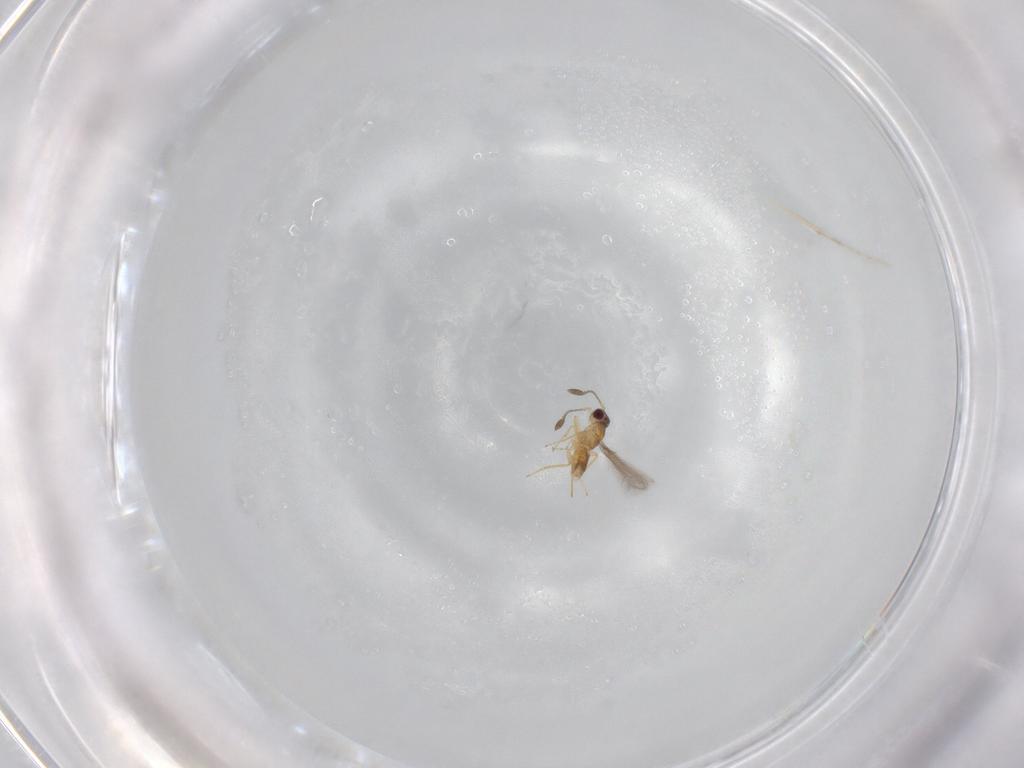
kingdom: Animalia
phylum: Arthropoda
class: Insecta
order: Hymenoptera
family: Mymaridae
